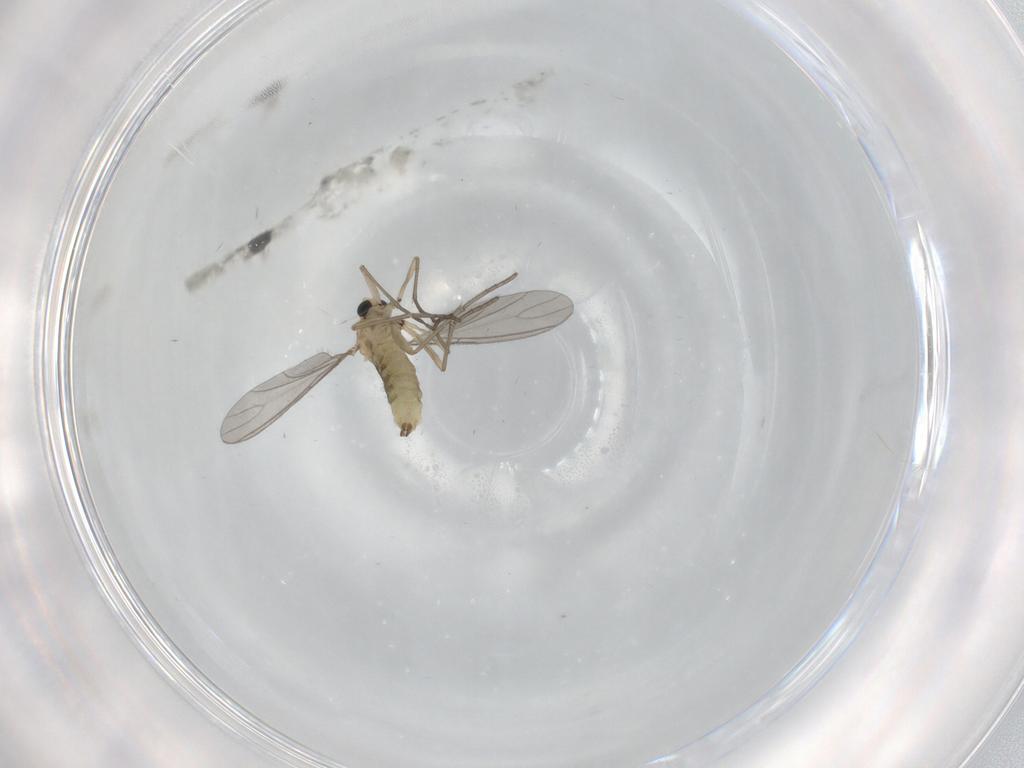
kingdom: Animalia
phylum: Arthropoda
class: Insecta
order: Diptera
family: Sciaridae
